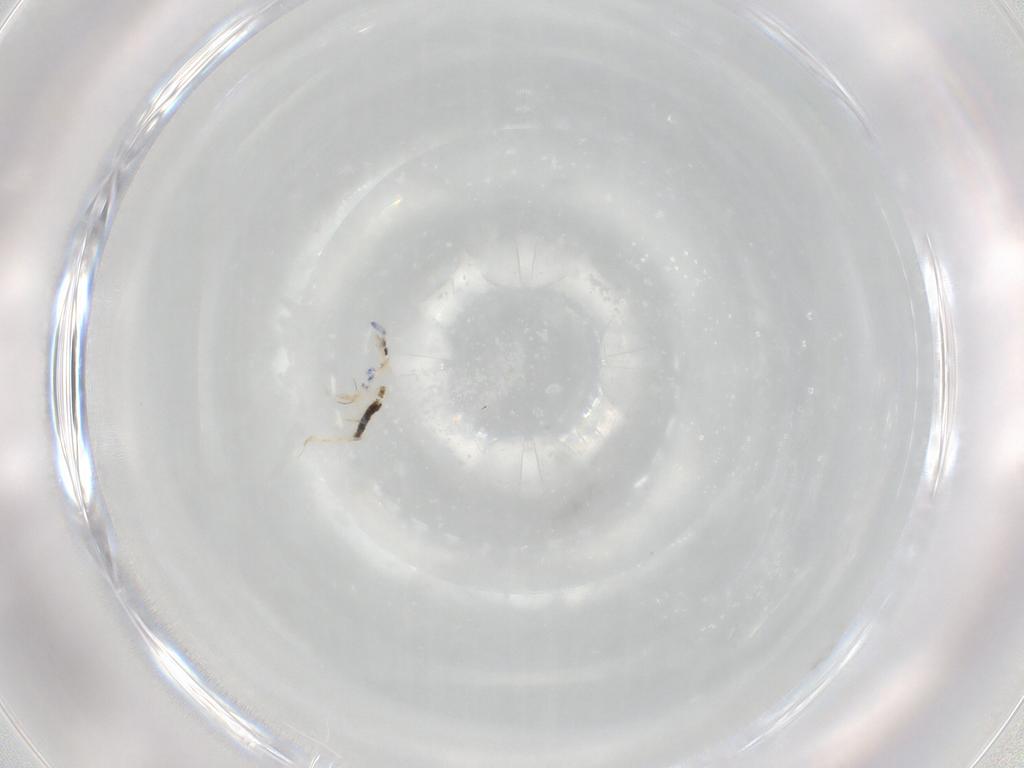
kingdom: Animalia
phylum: Arthropoda
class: Collembola
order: Entomobryomorpha
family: Entomobryidae
